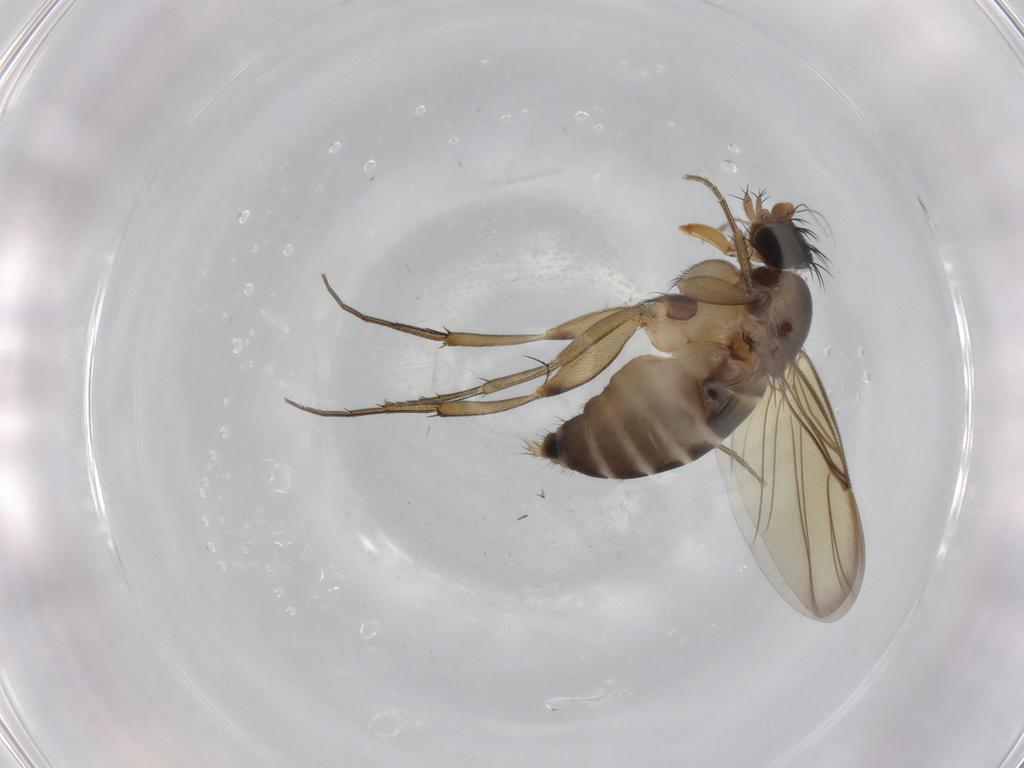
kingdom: Animalia
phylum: Arthropoda
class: Insecta
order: Diptera
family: Phoridae
